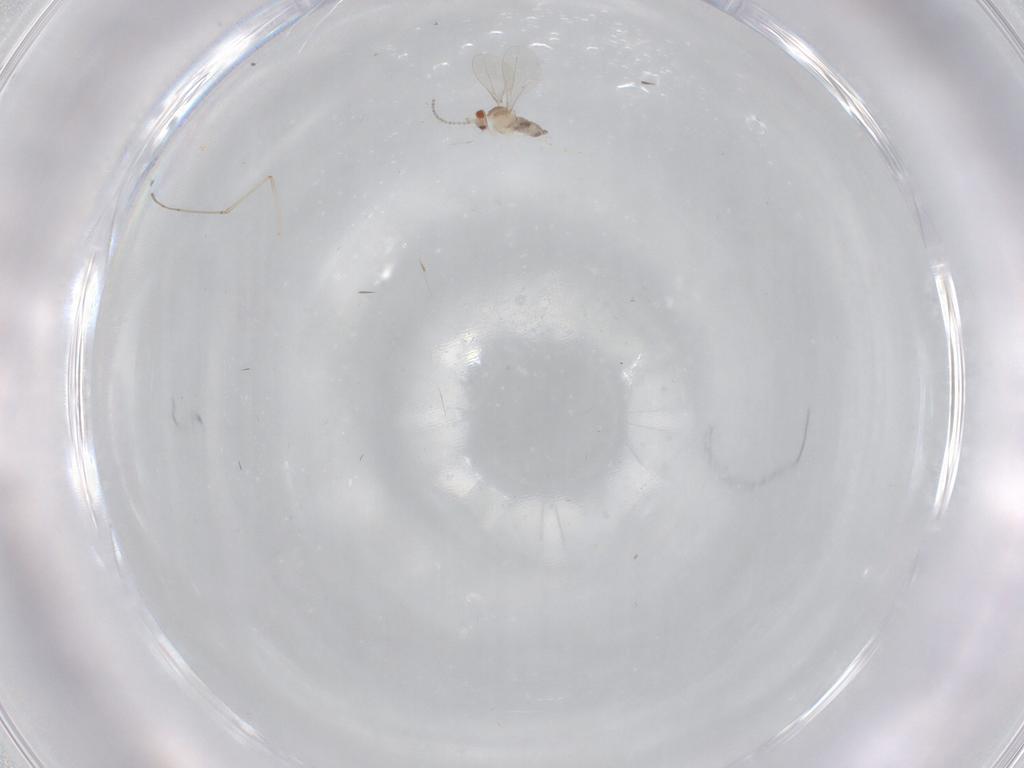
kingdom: Animalia
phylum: Arthropoda
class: Insecta
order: Diptera
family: Cecidomyiidae
